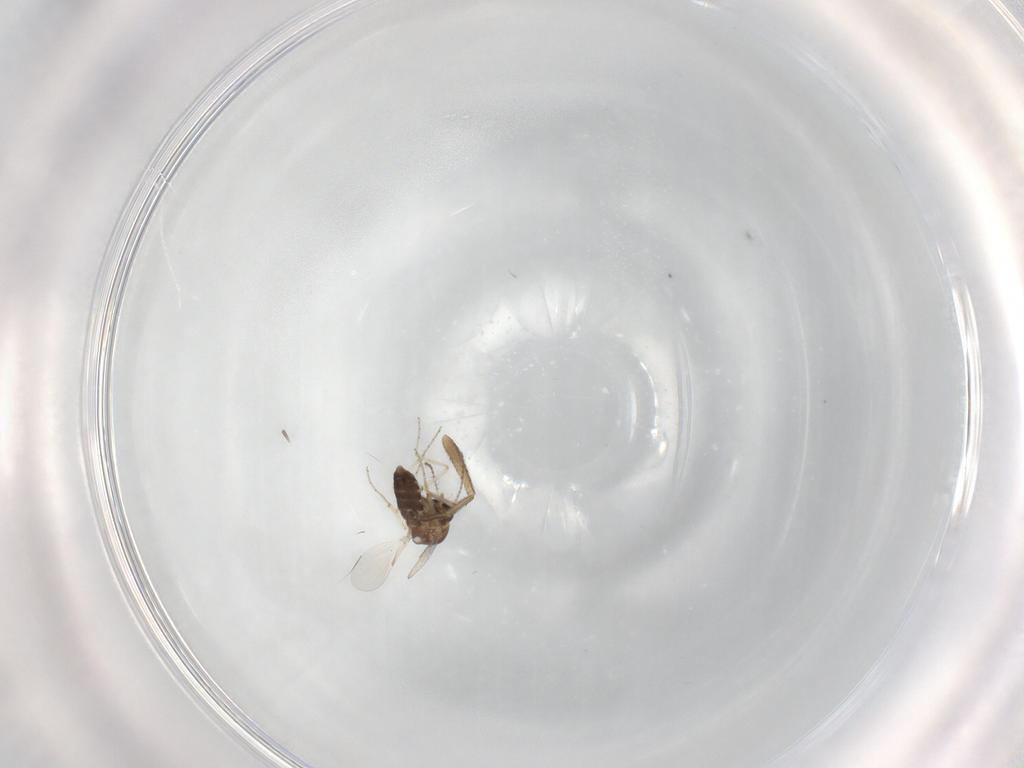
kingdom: Animalia
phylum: Arthropoda
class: Insecta
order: Diptera
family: Ceratopogonidae
